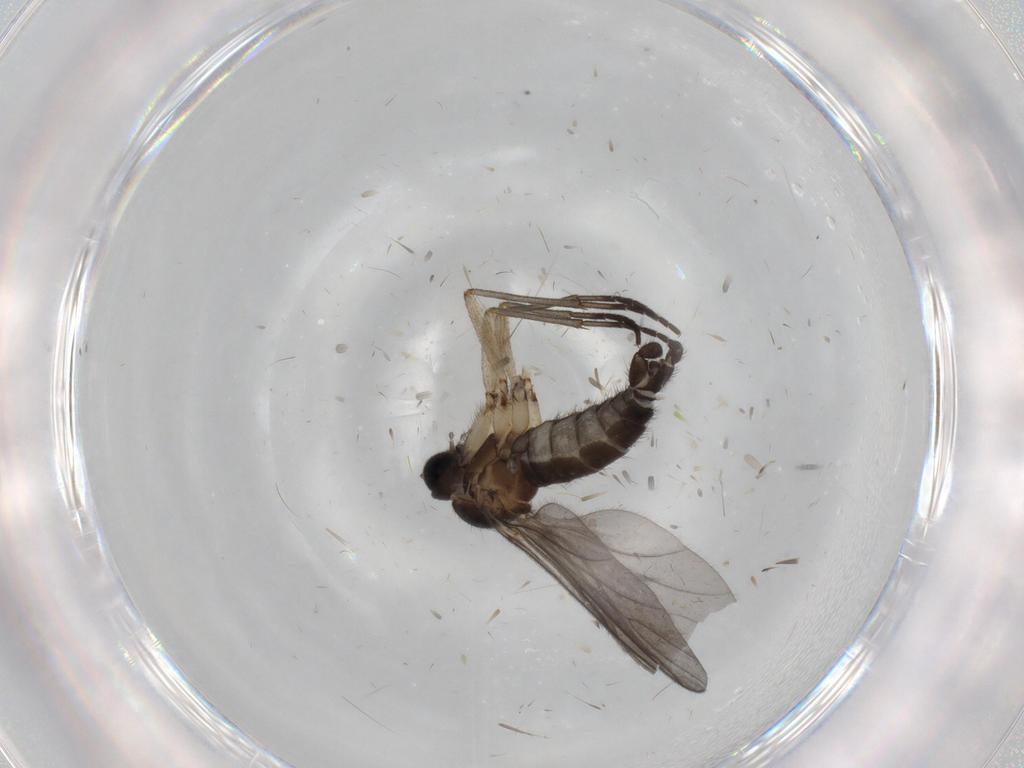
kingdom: Animalia
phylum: Arthropoda
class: Insecta
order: Diptera
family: Sciaridae
